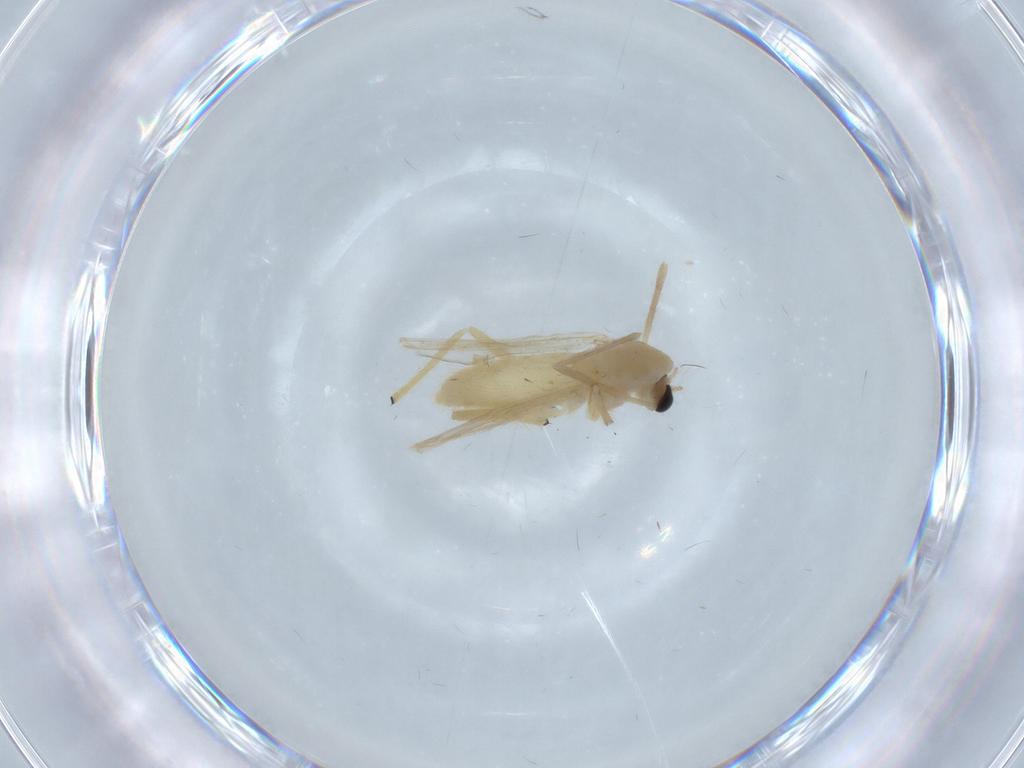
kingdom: Animalia
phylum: Arthropoda
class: Insecta
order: Diptera
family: Chironomidae
